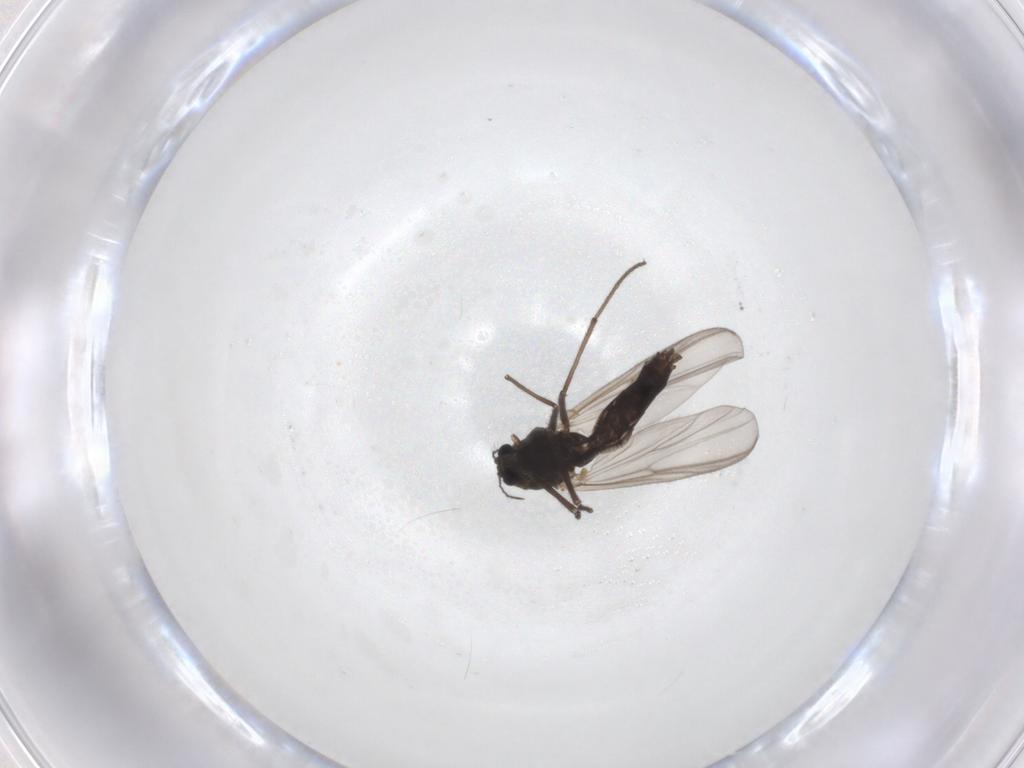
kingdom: Animalia
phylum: Arthropoda
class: Insecta
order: Diptera
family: Chironomidae
